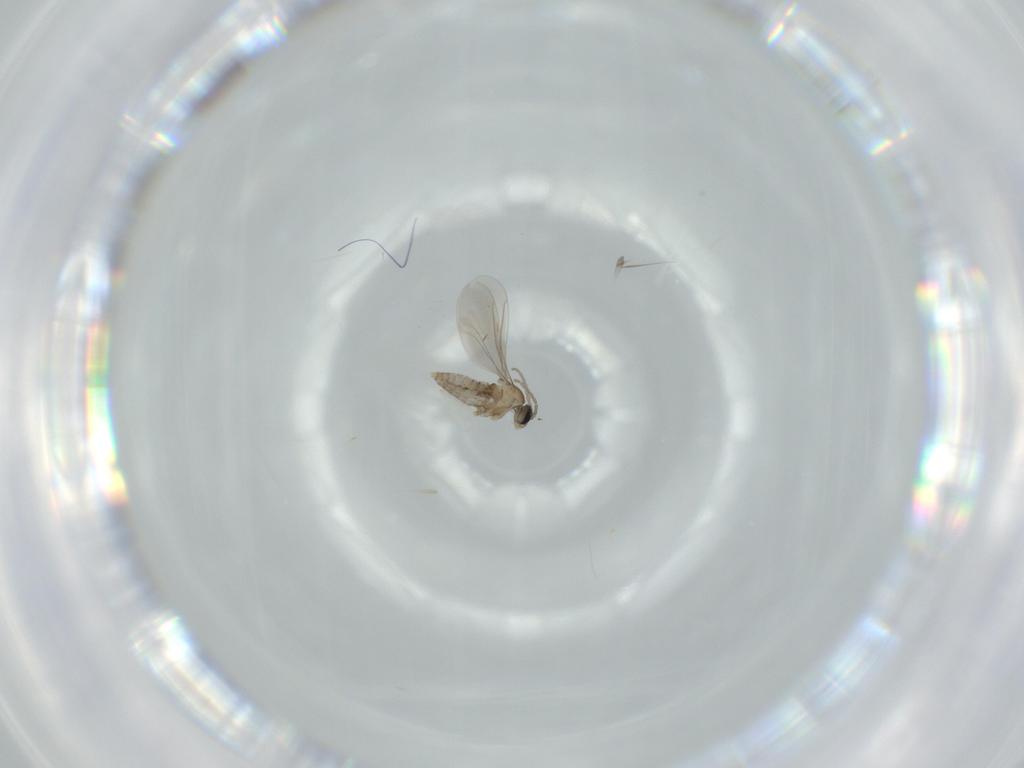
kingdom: Animalia
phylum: Arthropoda
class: Insecta
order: Diptera
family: Cecidomyiidae
